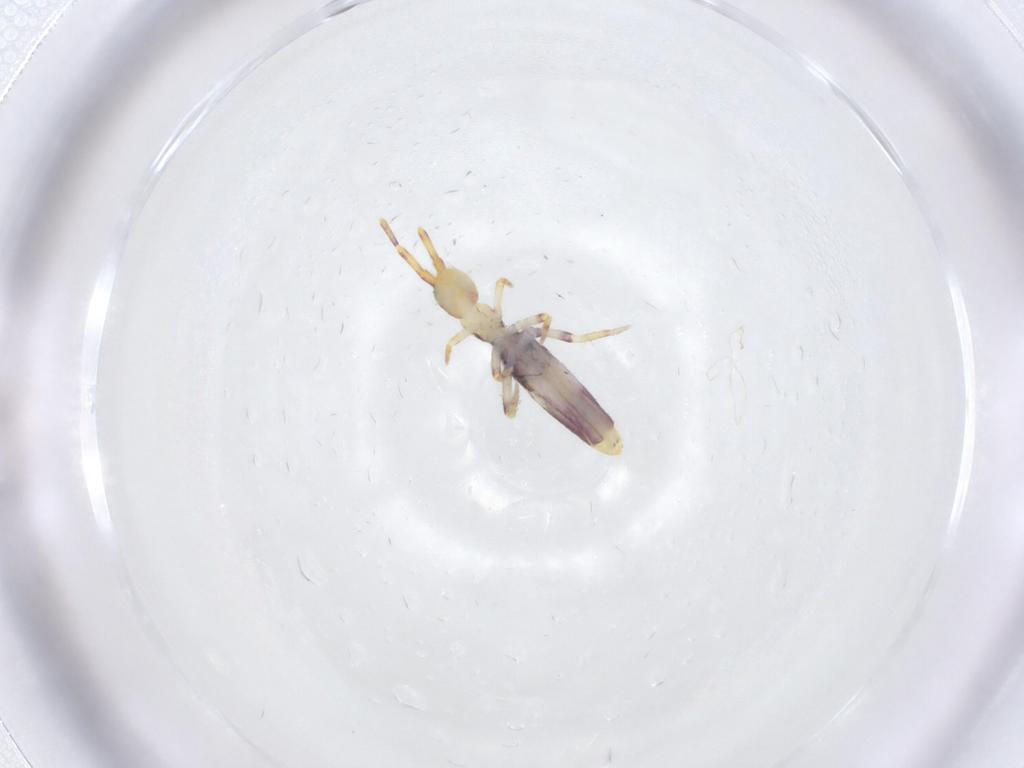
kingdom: Animalia
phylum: Arthropoda
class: Collembola
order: Entomobryomorpha
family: Entomobryidae
